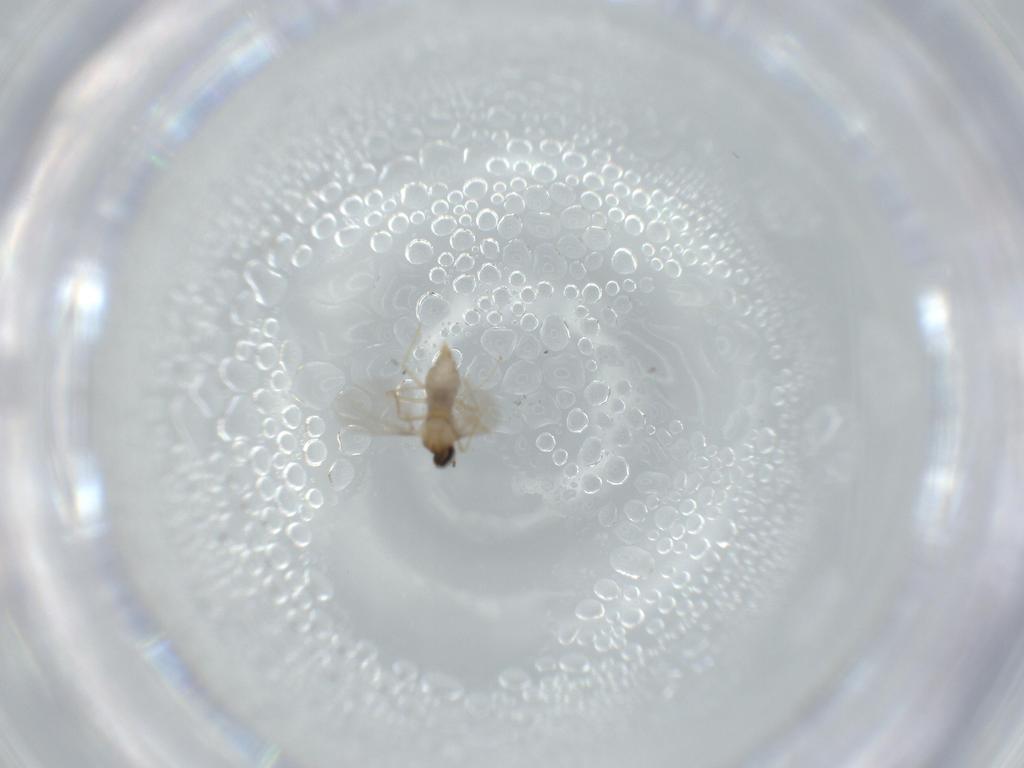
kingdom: Animalia
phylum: Arthropoda
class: Insecta
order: Diptera
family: Cecidomyiidae
